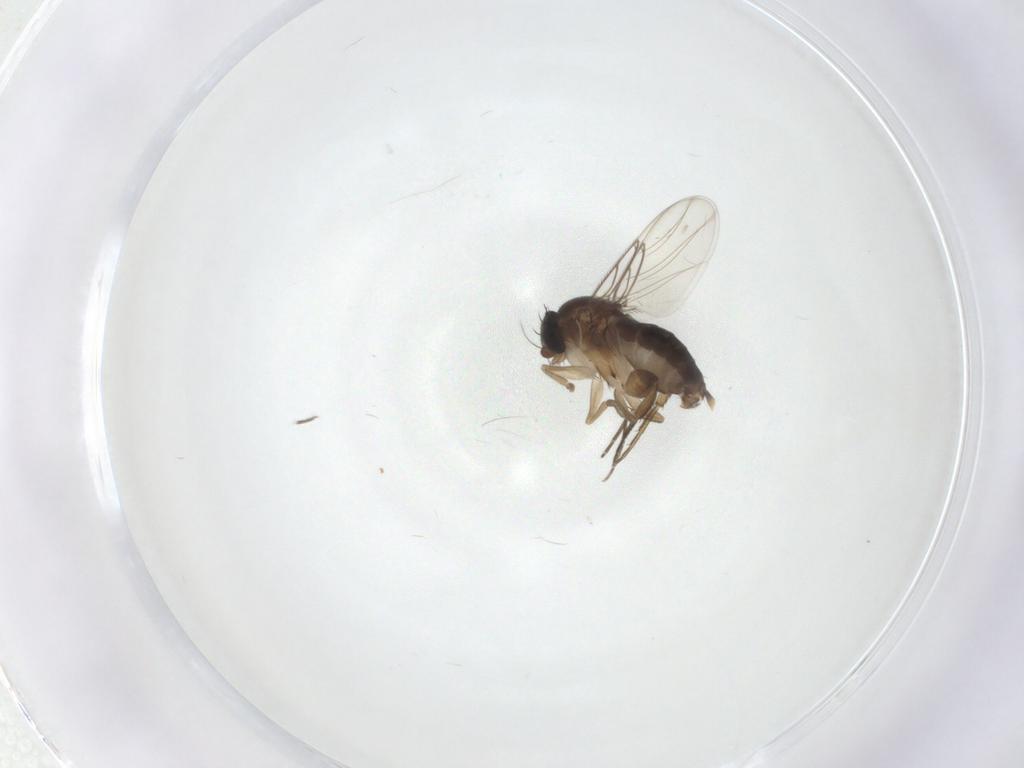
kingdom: Animalia
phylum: Arthropoda
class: Insecta
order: Diptera
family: Phoridae
